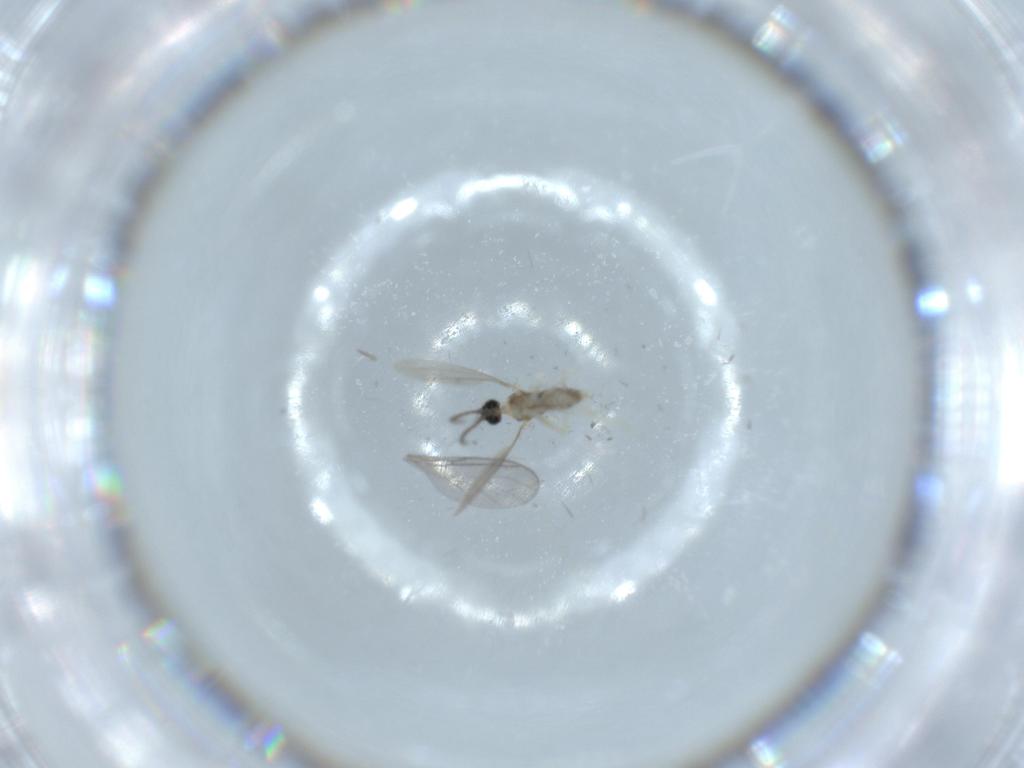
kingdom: Animalia
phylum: Arthropoda
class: Insecta
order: Diptera
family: Cecidomyiidae
